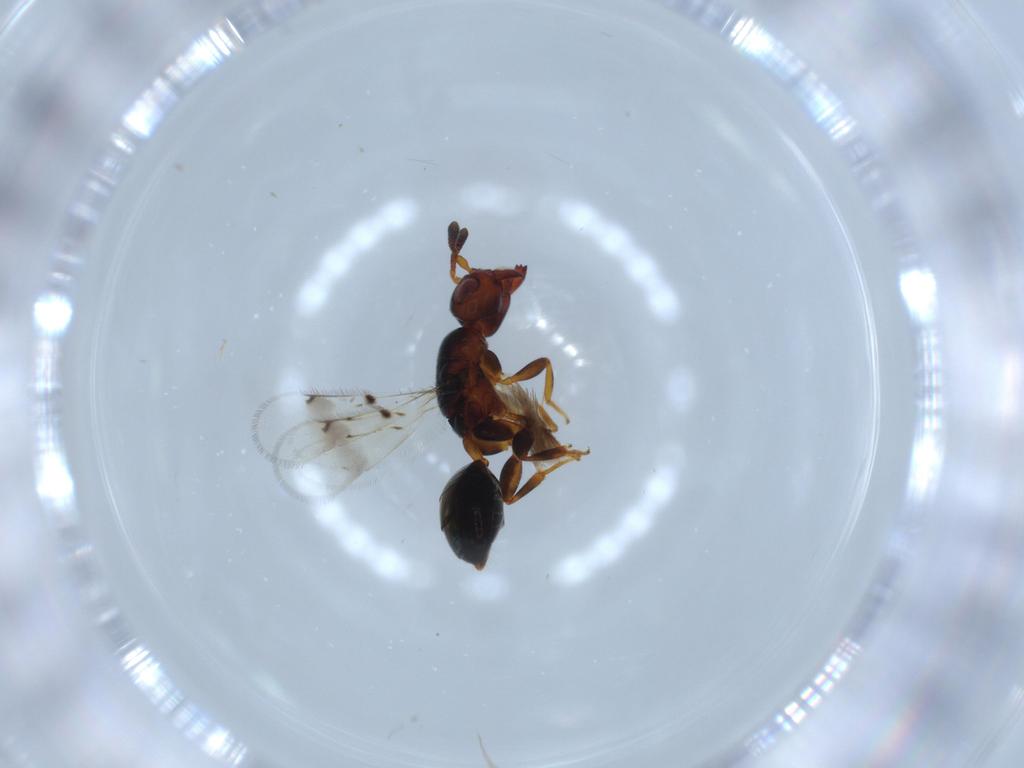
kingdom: Animalia
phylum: Arthropoda
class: Insecta
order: Hymenoptera
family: Cerocephalidae
